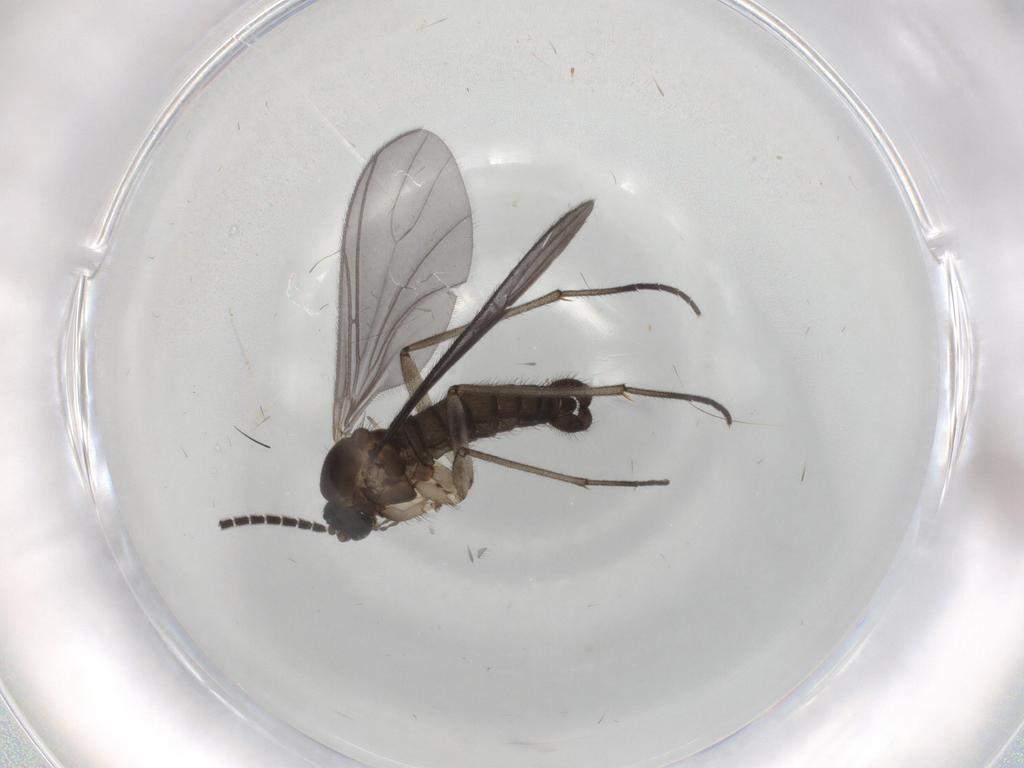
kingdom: Animalia
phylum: Arthropoda
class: Insecta
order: Diptera
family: Sciaridae
